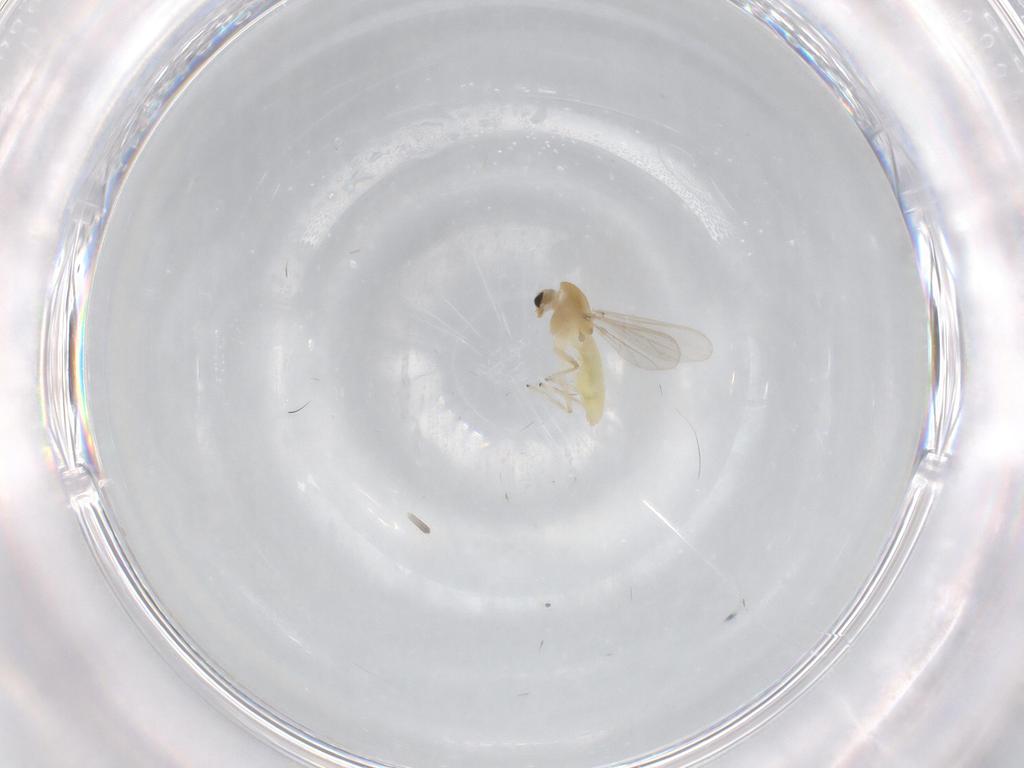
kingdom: Animalia
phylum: Arthropoda
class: Insecta
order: Diptera
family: Chironomidae
